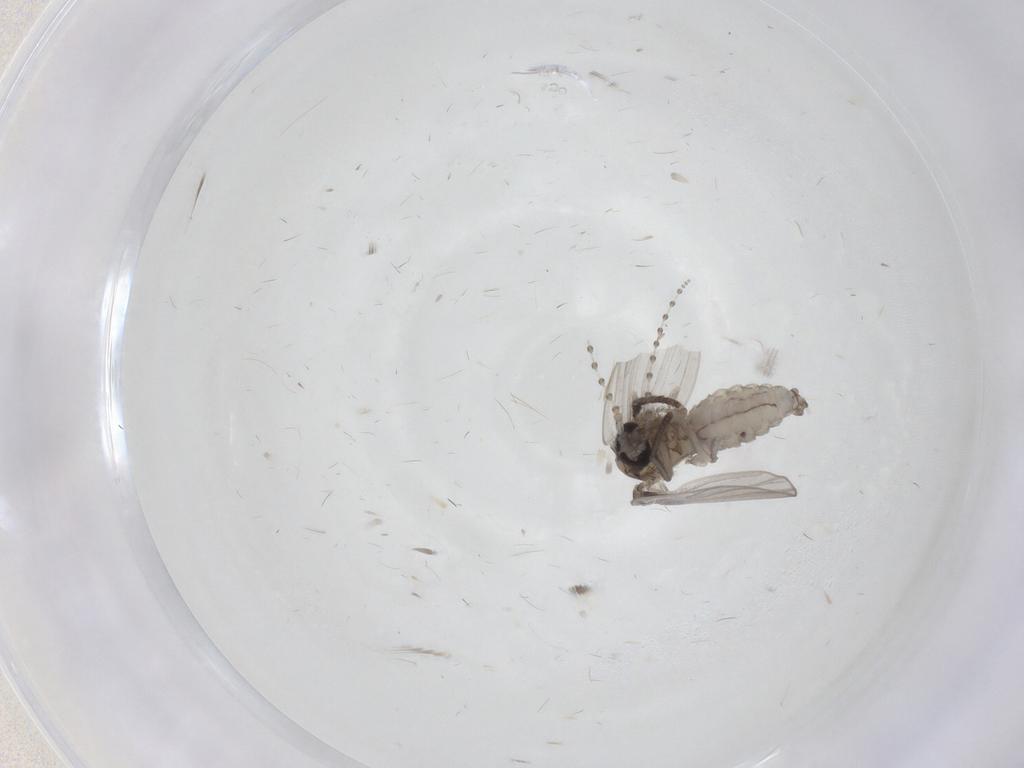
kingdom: Animalia
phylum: Arthropoda
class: Insecta
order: Diptera
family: Psychodidae
